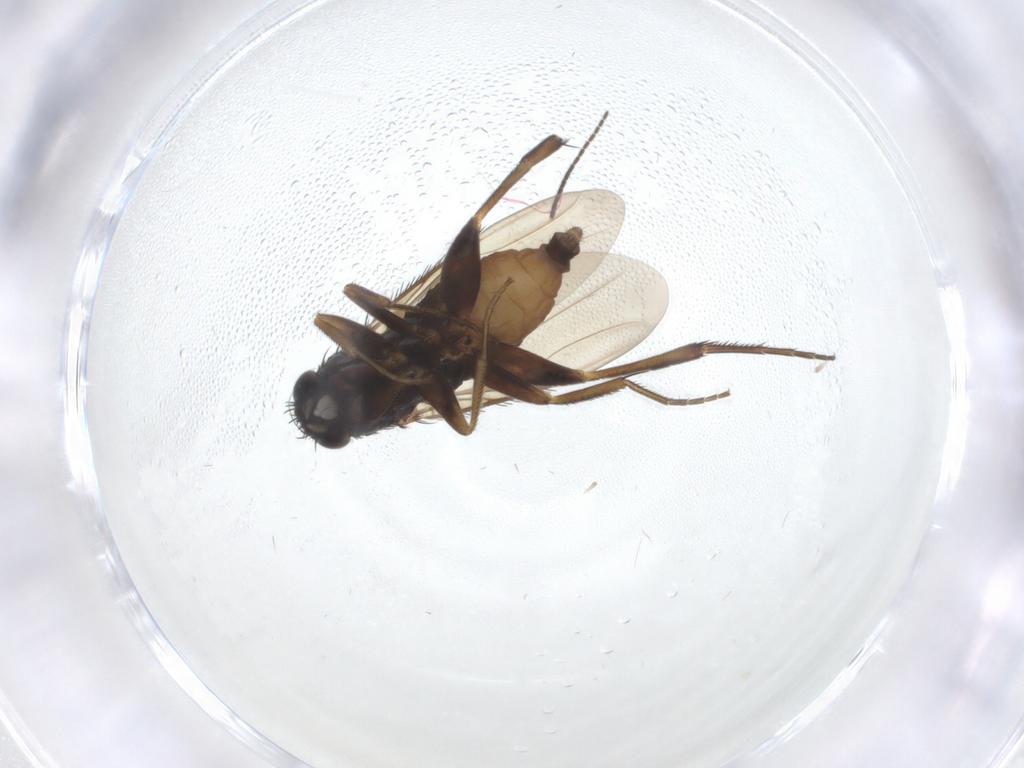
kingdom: Animalia
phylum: Arthropoda
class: Insecta
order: Diptera
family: Phoridae
